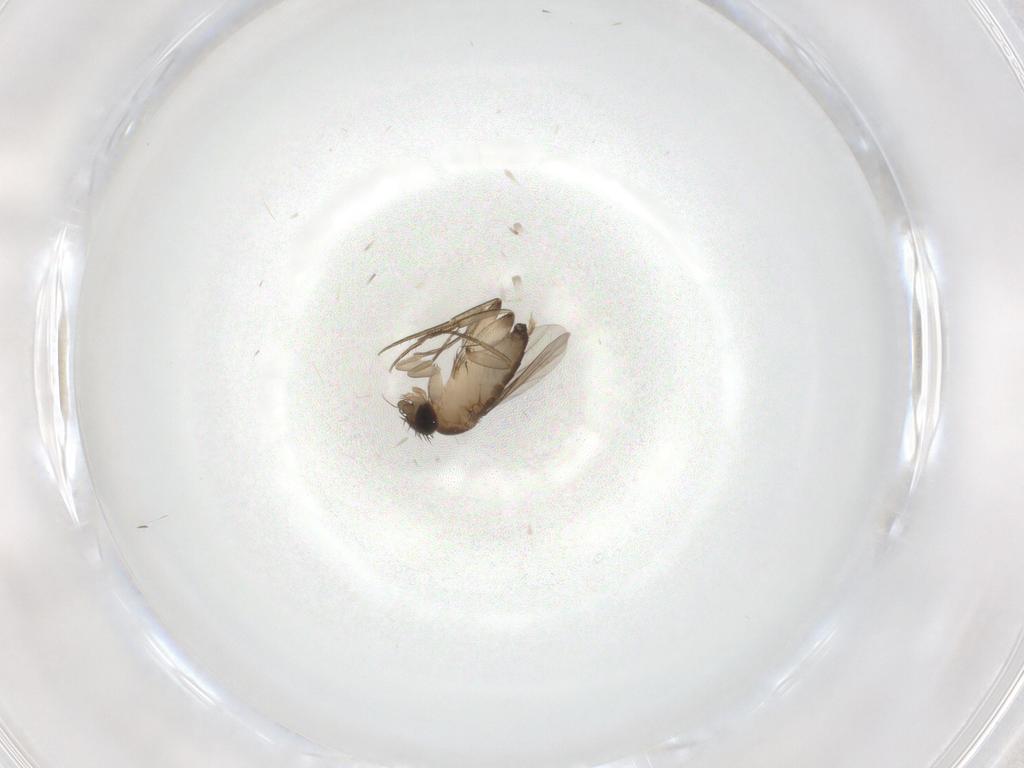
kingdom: Animalia
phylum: Arthropoda
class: Insecta
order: Diptera
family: Phoridae
